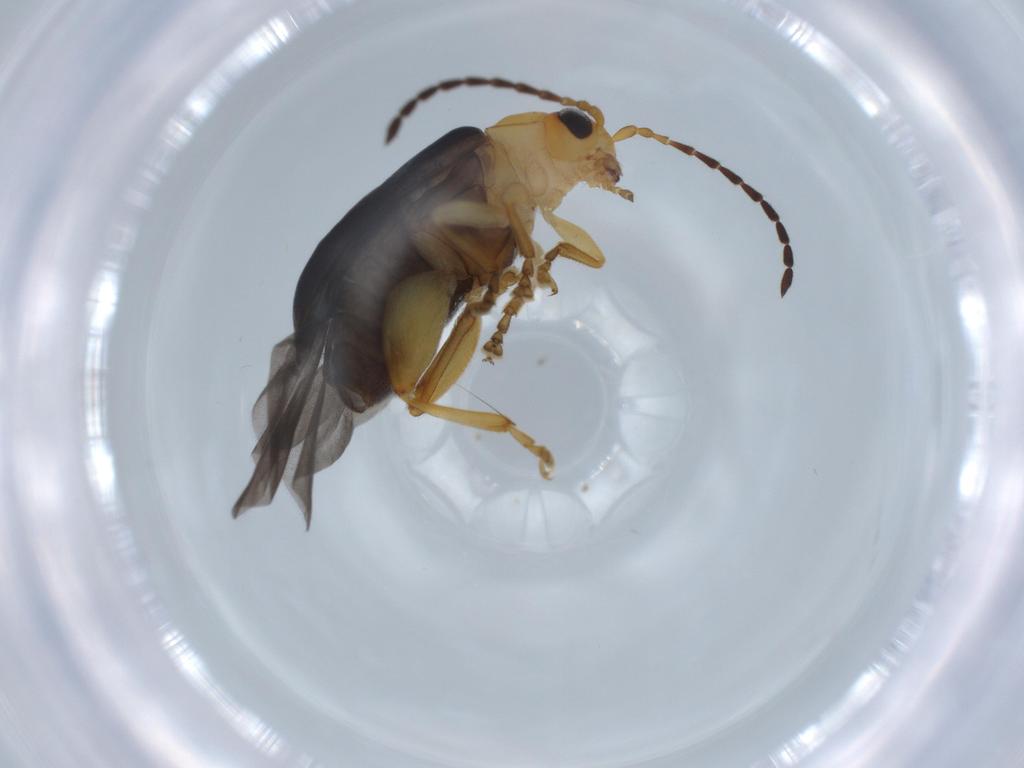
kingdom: Animalia
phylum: Arthropoda
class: Insecta
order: Coleoptera
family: Chrysomelidae
